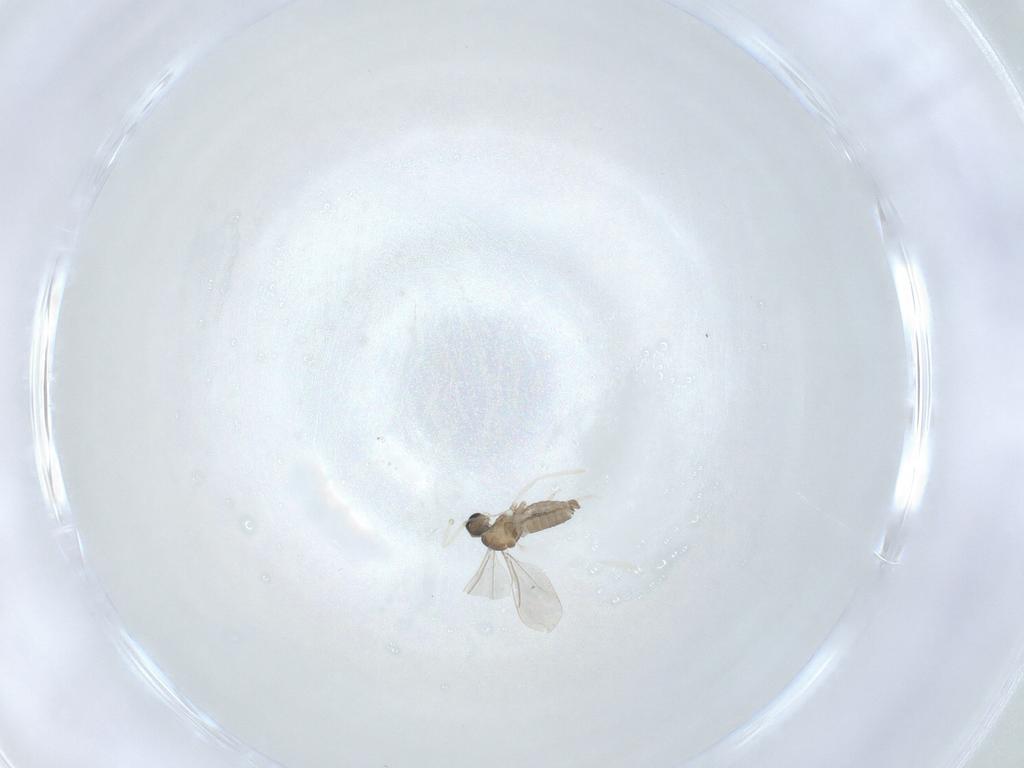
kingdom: Animalia
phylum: Arthropoda
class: Insecta
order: Diptera
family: Cecidomyiidae
